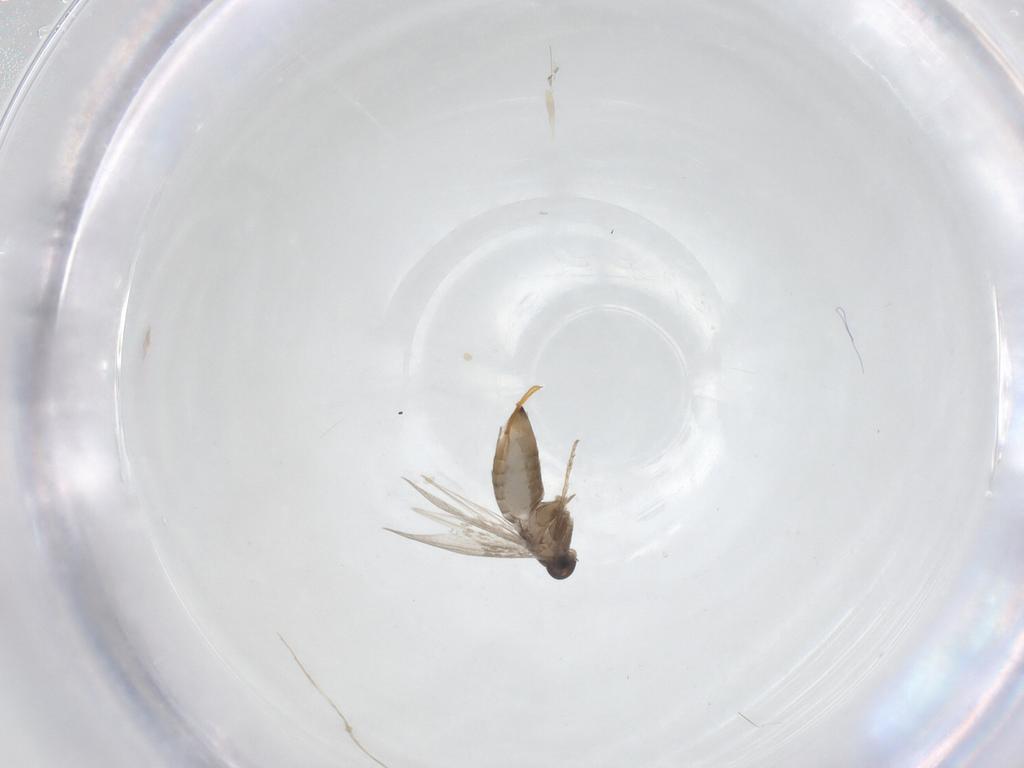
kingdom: Animalia
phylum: Arthropoda
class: Insecta
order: Lepidoptera
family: Heliozelidae
